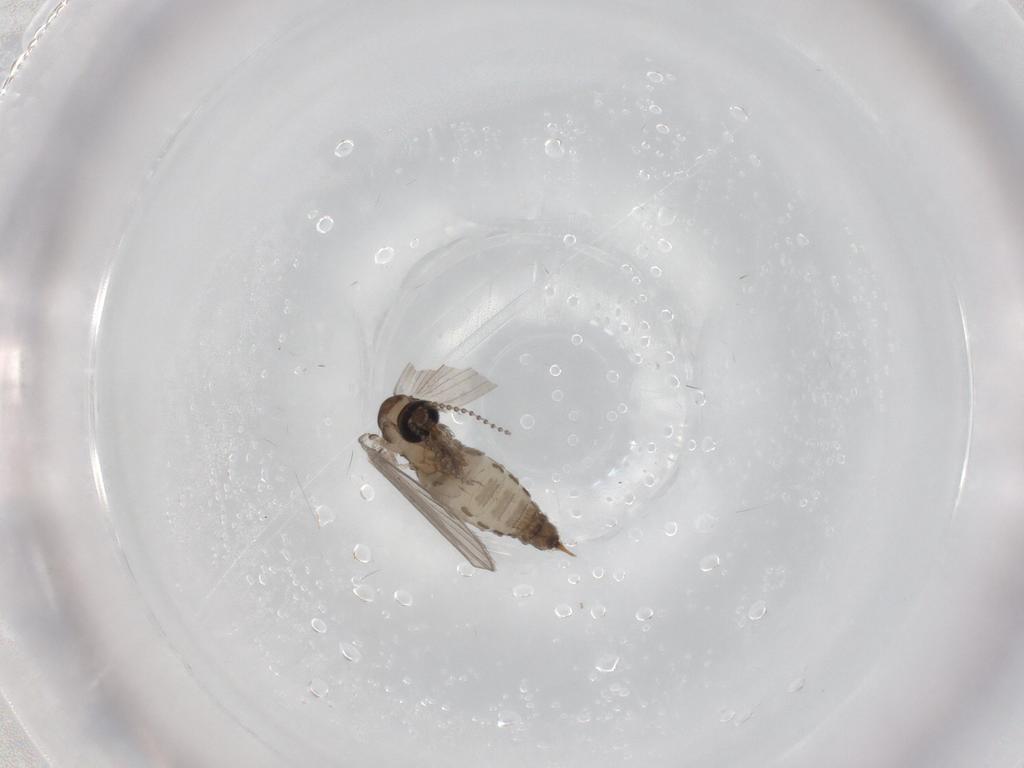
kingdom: Animalia
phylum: Arthropoda
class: Insecta
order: Diptera
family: Psychodidae
